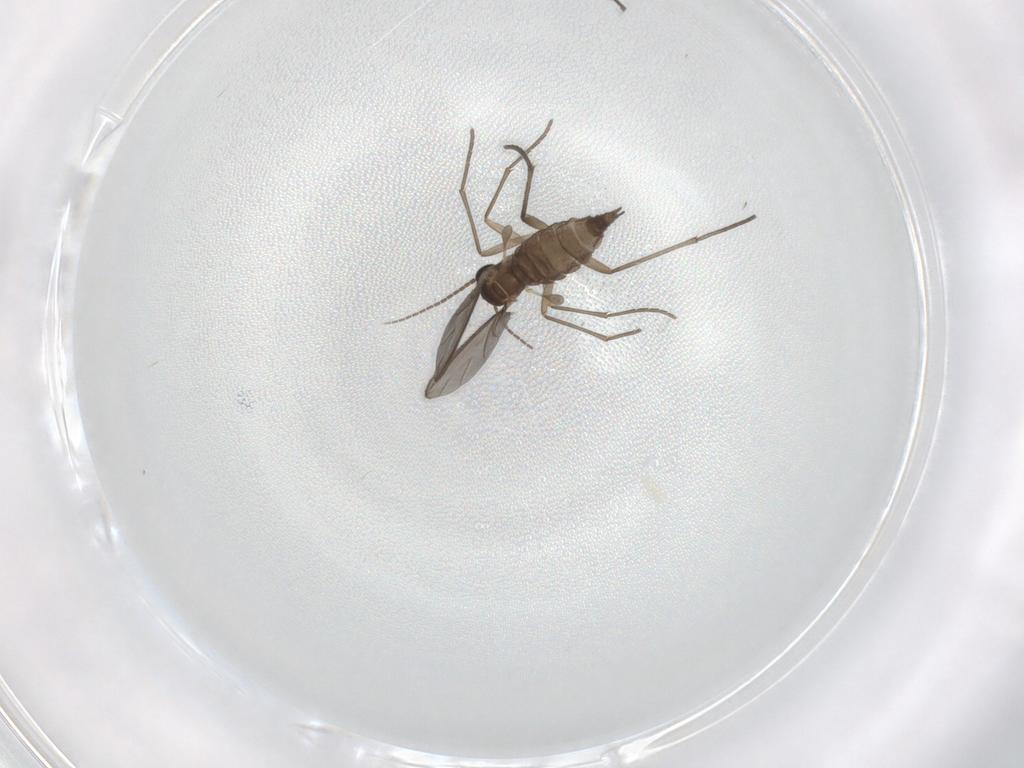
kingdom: Animalia
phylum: Arthropoda
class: Insecta
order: Diptera
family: Sciaridae
